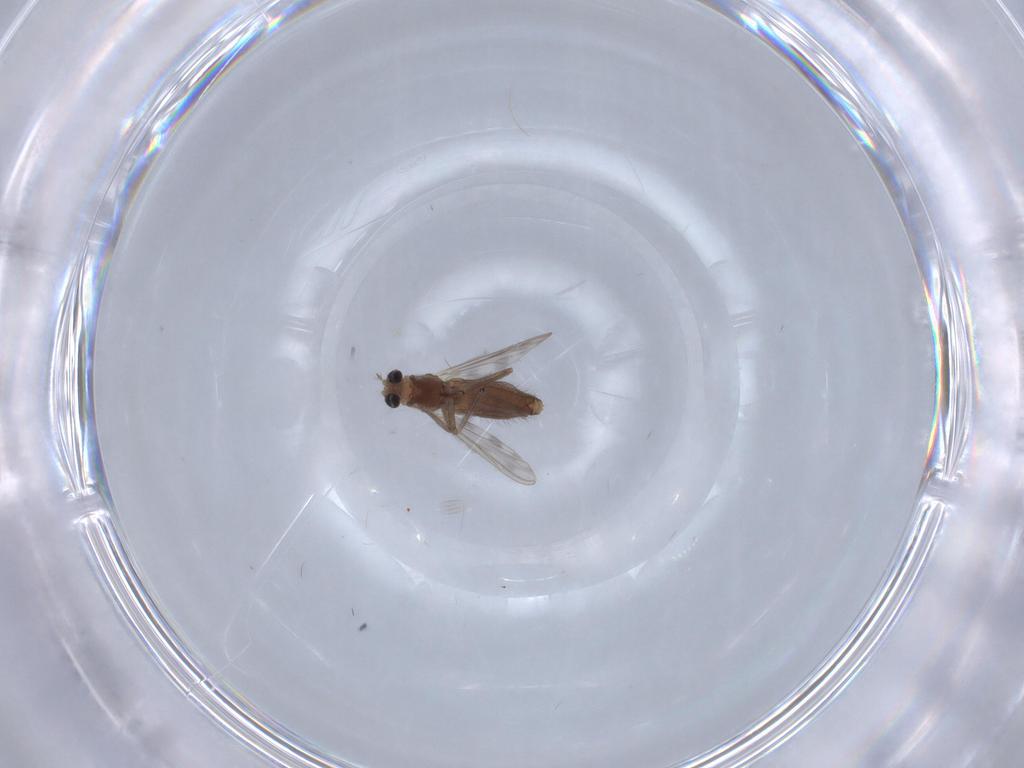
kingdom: Animalia
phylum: Arthropoda
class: Insecta
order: Diptera
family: Chironomidae
